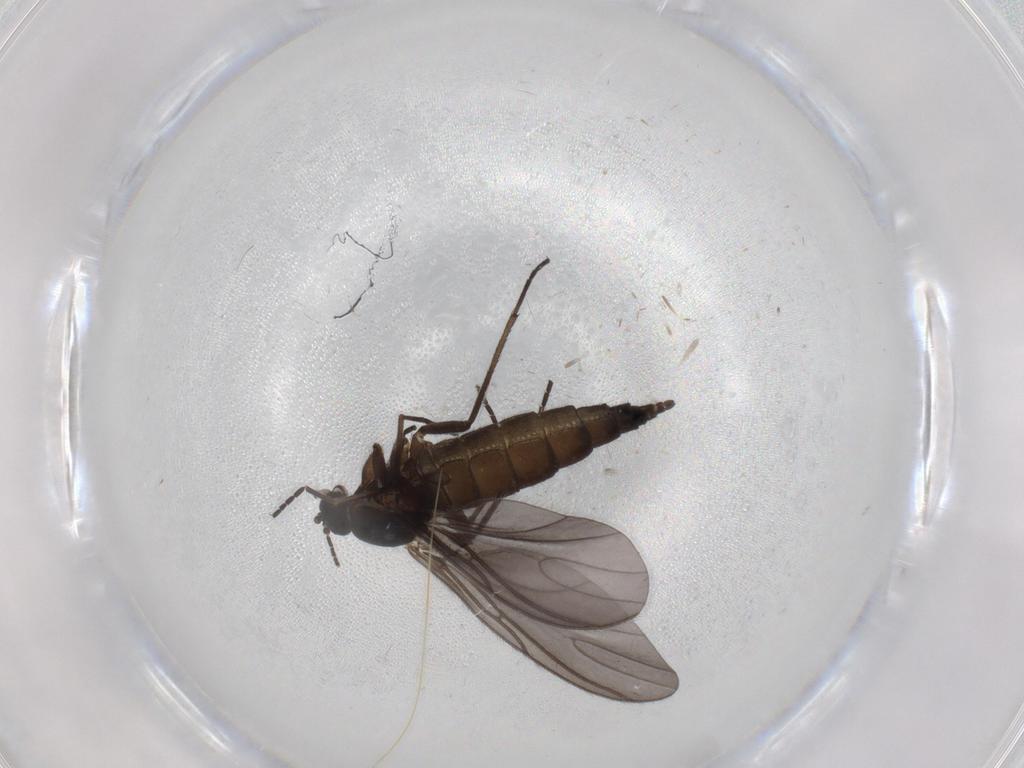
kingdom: Animalia
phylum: Arthropoda
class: Insecta
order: Diptera
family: Sciaridae
